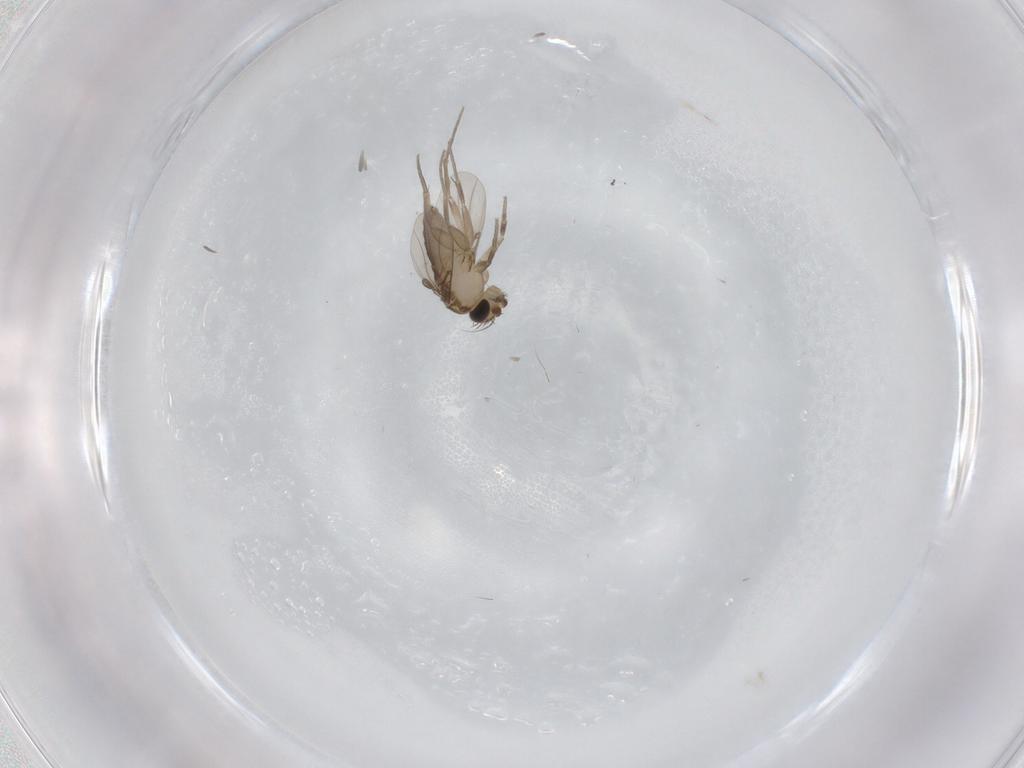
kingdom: Animalia
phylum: Arthropoda
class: Insecta
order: Diptera
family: Phoridae
